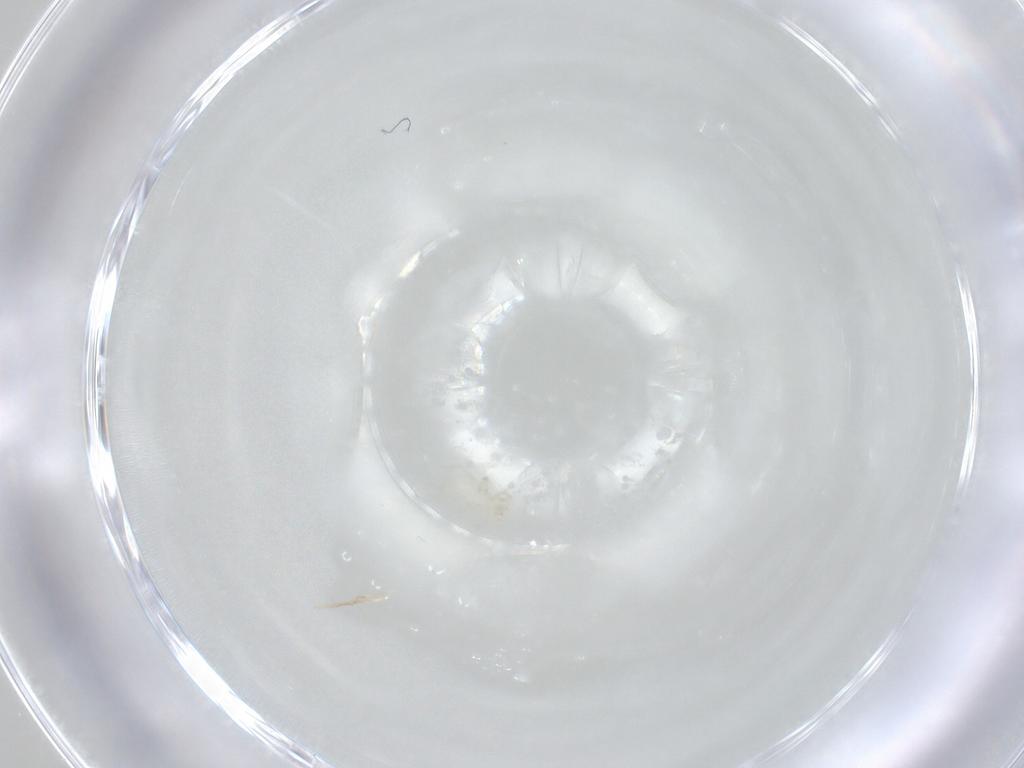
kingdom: Animalia
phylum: Arthropoda
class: Arachnida
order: Trombidiformes
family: Erythraeidae
